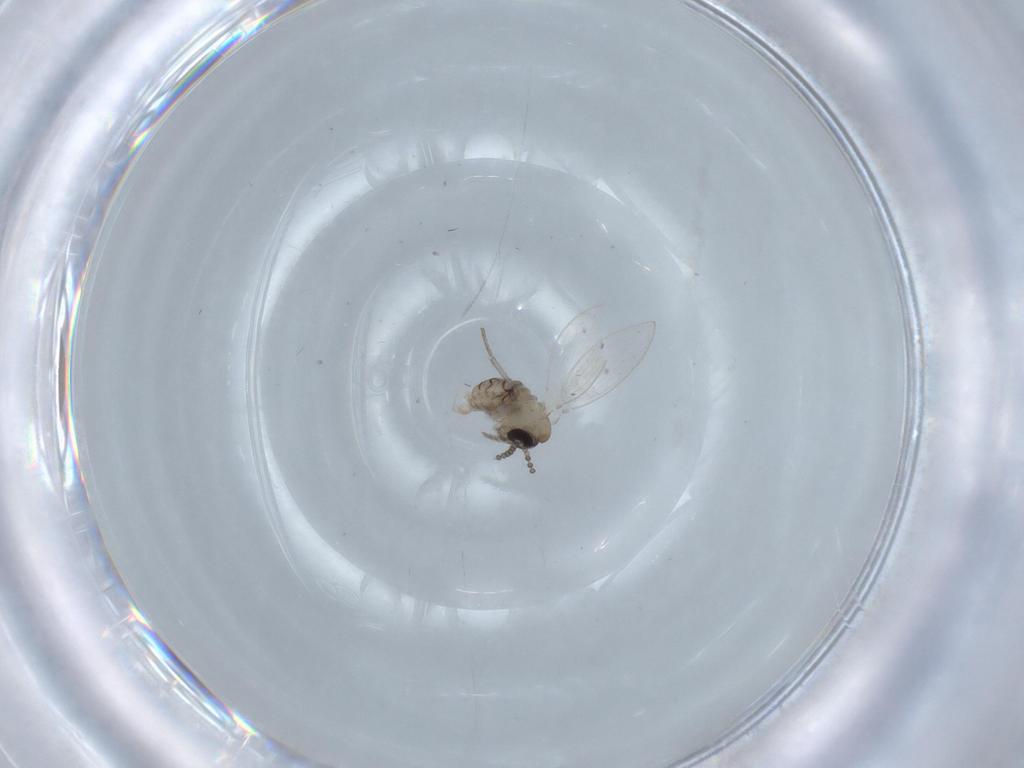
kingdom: Animalia
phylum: Arthropoda
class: Insecta
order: Diptera
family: Psychodidae
